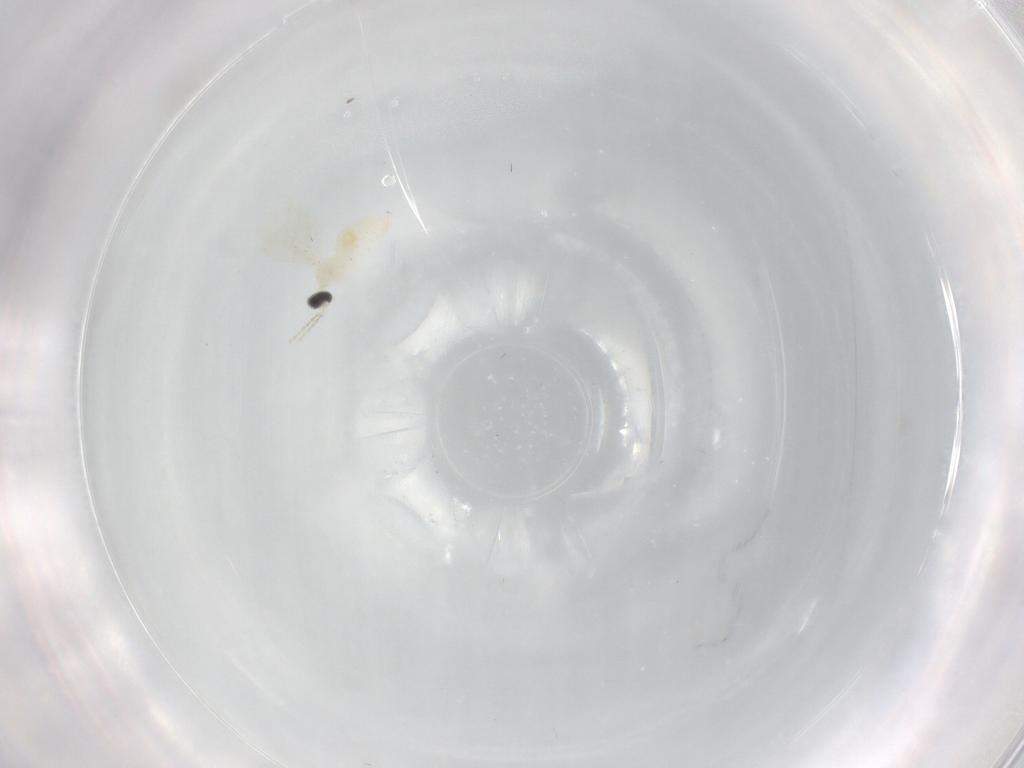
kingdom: Animalia
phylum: Arthropoda
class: Insecta
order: Diptera
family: Cecidomyiidae
